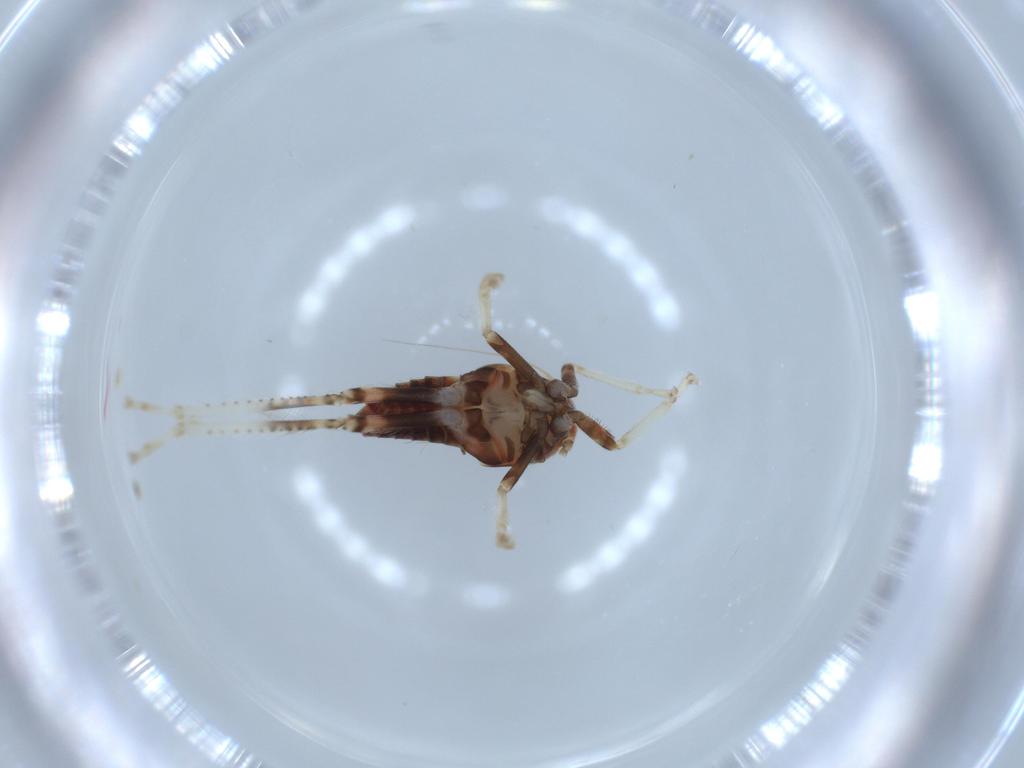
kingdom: Animalia
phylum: Arthropoda
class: Insecta
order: Hemiptera
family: Cicadellidae
